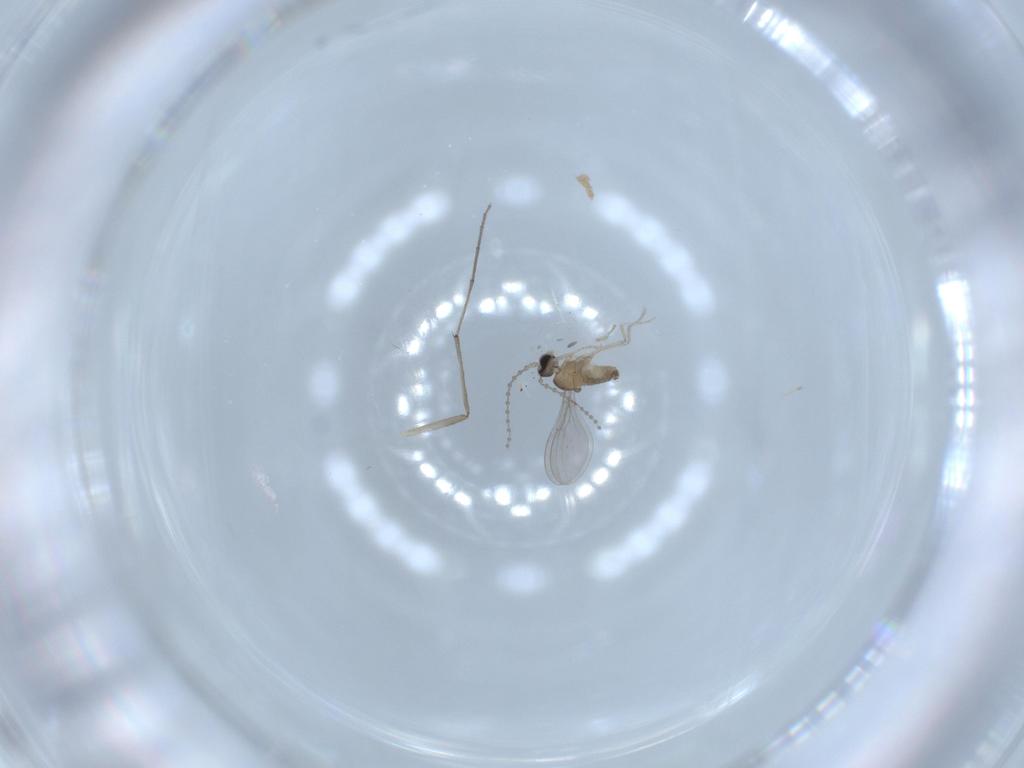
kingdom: Animalia
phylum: Arthropoda
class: Insecta
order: Diptera
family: Cecidomyiidae
